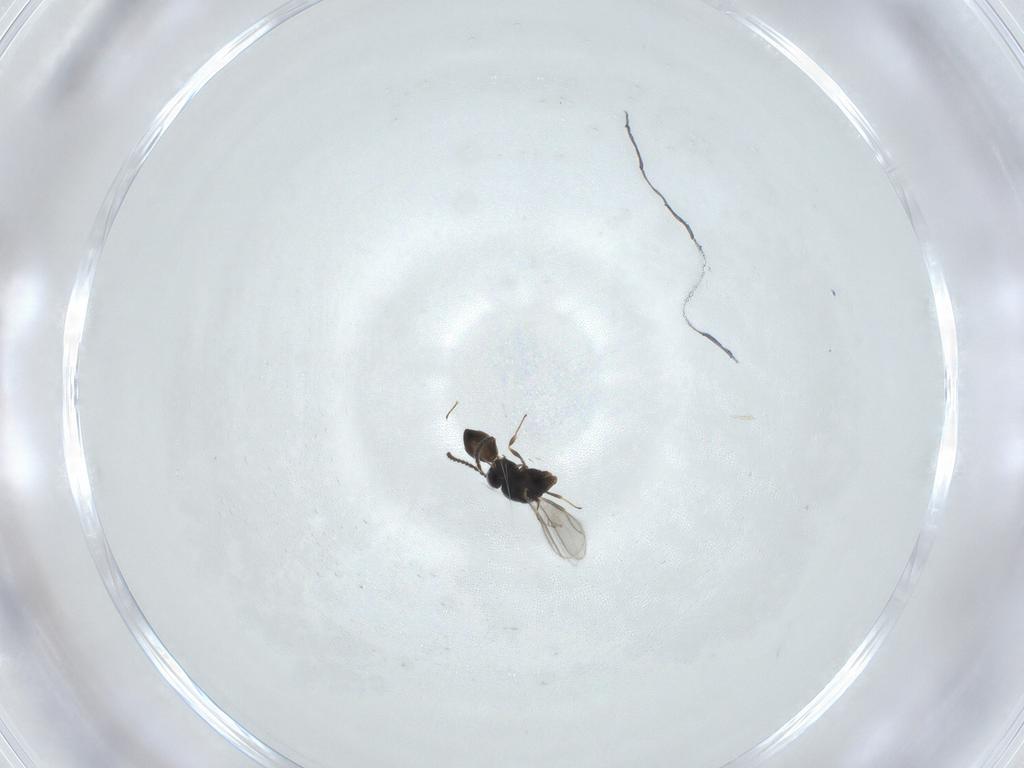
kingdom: Animalia
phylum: Arthropoda
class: Insecta
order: Hymenoptera
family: Scelionidae
